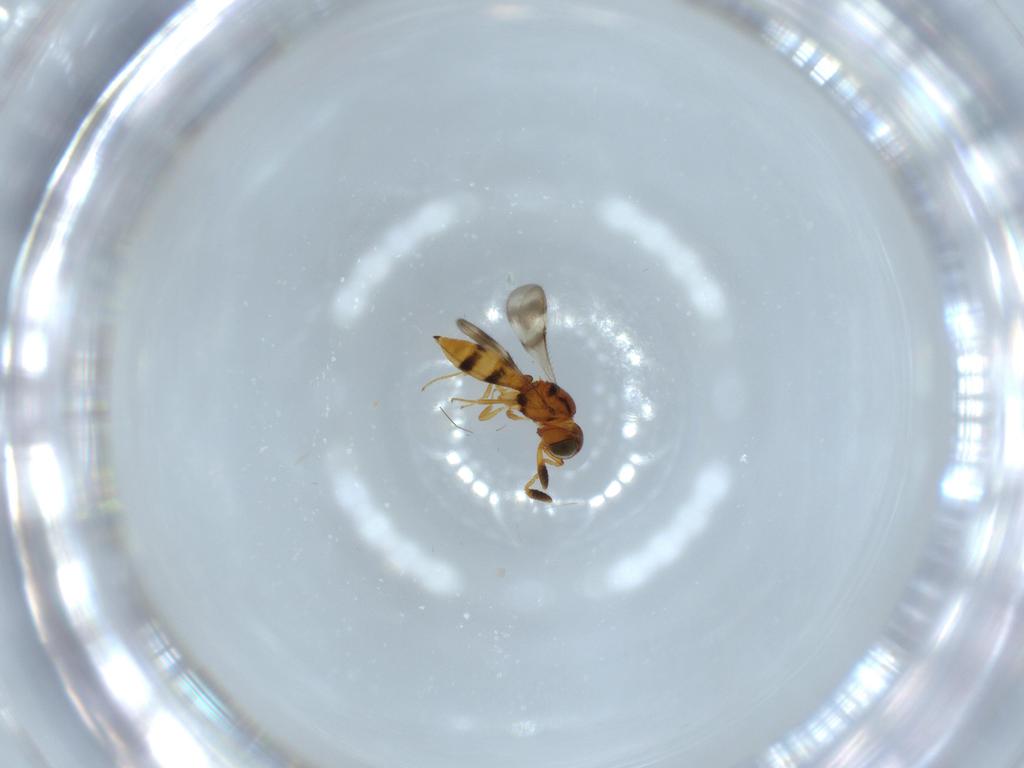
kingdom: Animalia
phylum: Arthropoda
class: Insecta
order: Hymenoptera
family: Scelionidae
